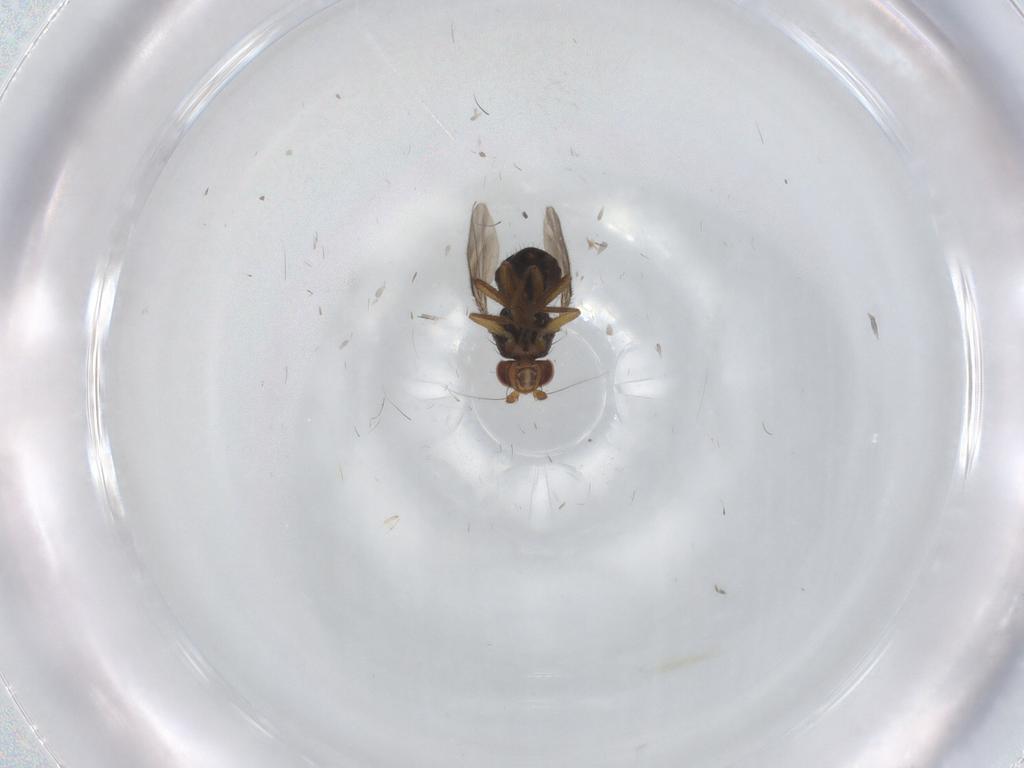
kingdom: Animalia
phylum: Arthropoda
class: Insecta
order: Diptera
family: Sphaeroceridae
